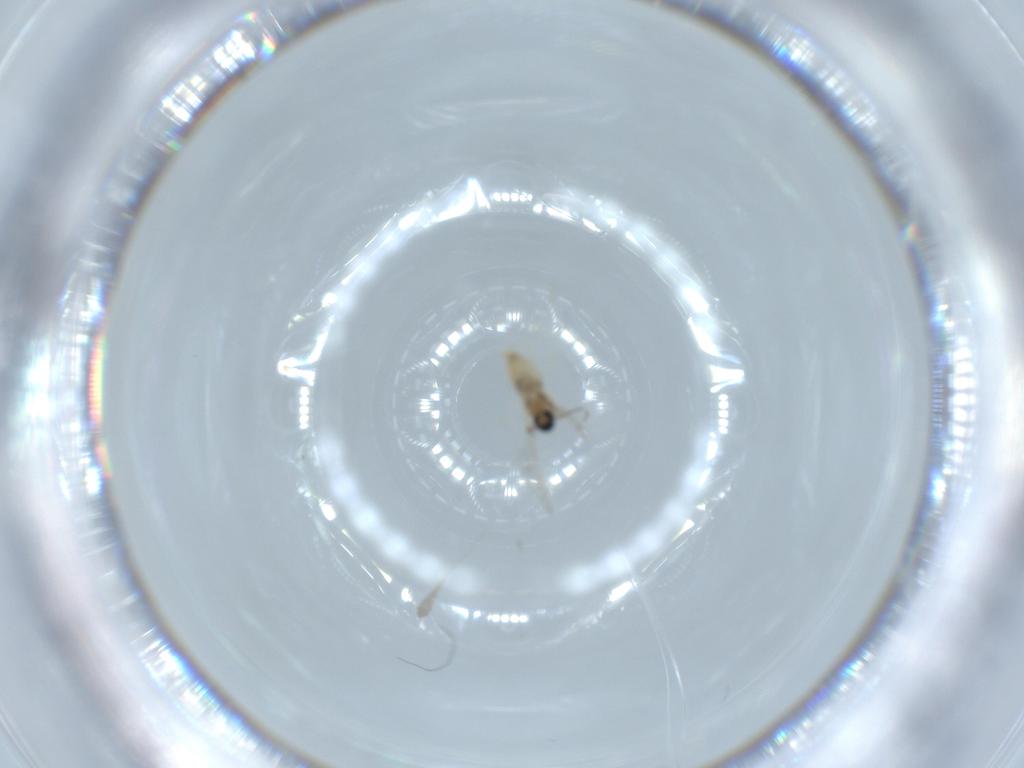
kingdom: Animalia
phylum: Arthropoda
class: Insecta
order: Diptera
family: Cecidomyiidae
